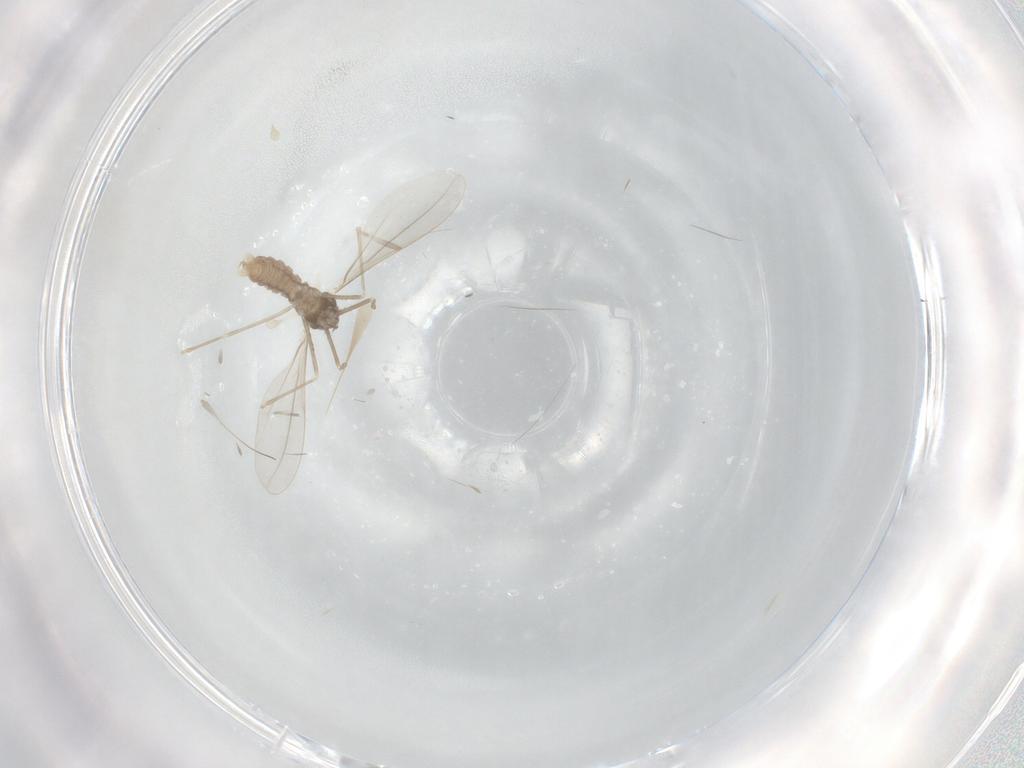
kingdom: Animalia
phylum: Arthropoda
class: Insecta
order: Diptera
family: Cecidomyiidae
